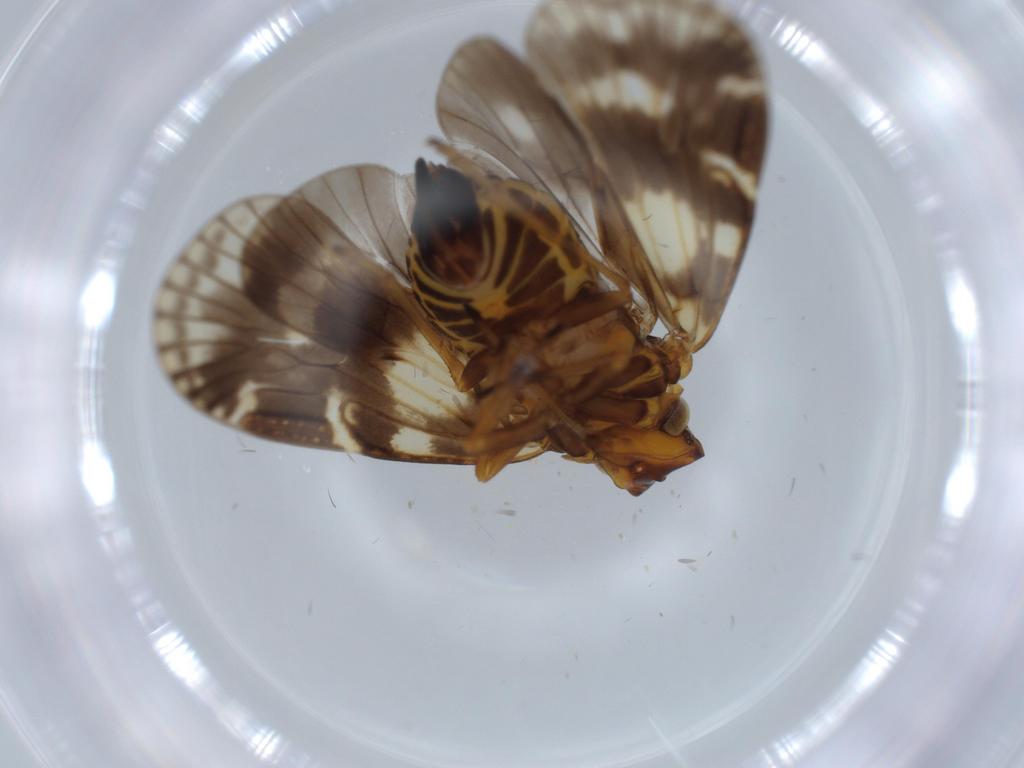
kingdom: Animalia
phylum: Arthropoda
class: Insecta
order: Hemiptera
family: Cixiidae
